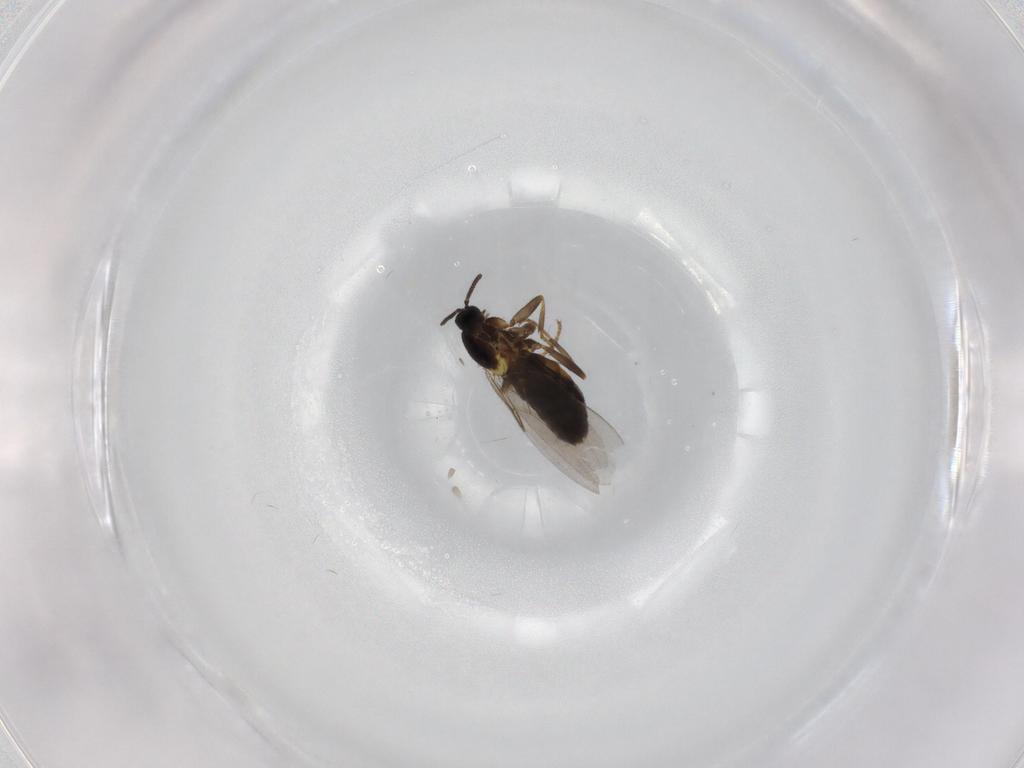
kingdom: Animalia
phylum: Arthropoda
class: Insecta
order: Diptera
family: Scatopsidae
